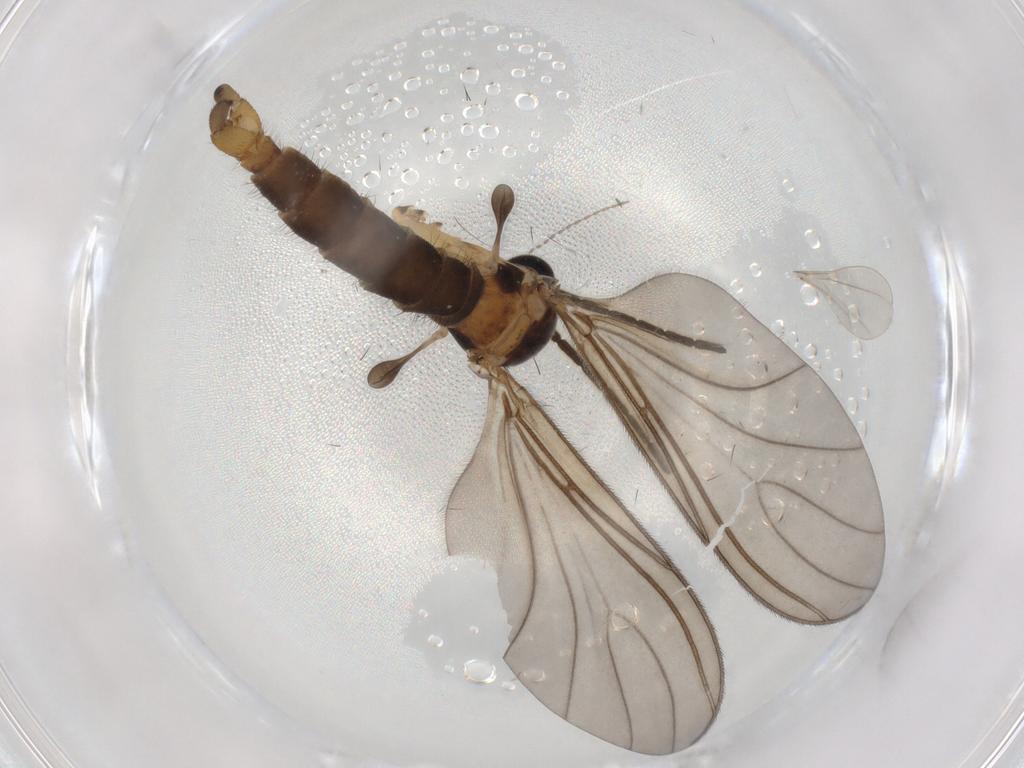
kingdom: Animalia
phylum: Arthropoda
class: Insecta
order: Diptera
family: Sciaridae
